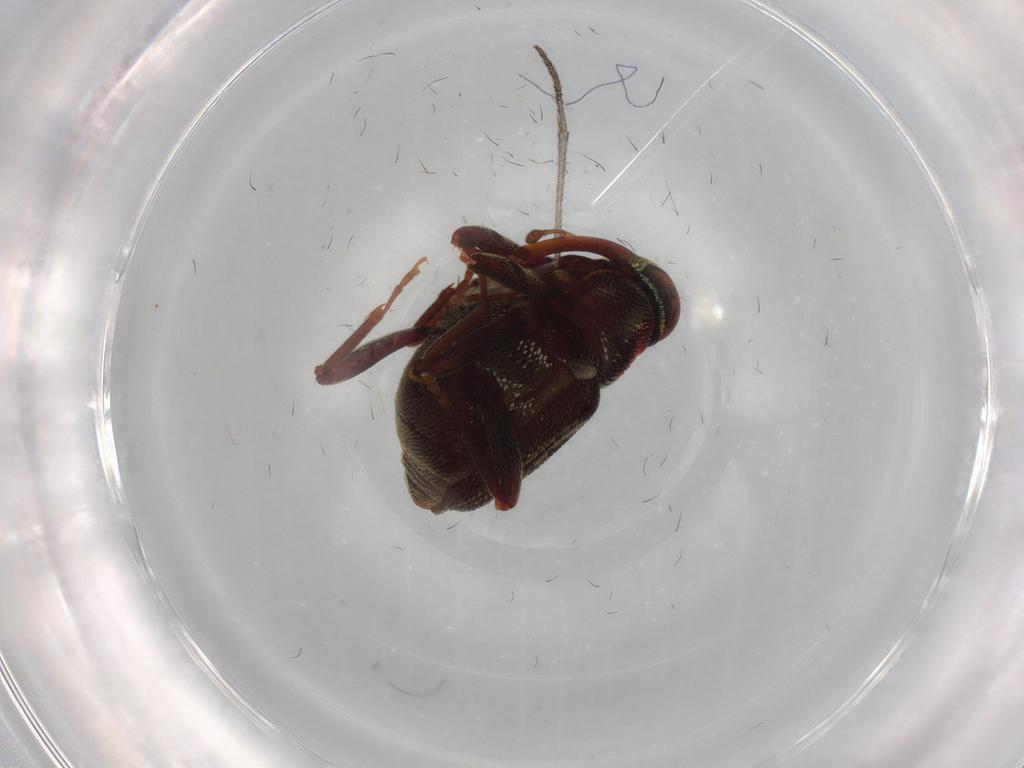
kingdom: Animalia
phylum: Arthropoda
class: Insecta
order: Coleoptera
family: Curculionidae
